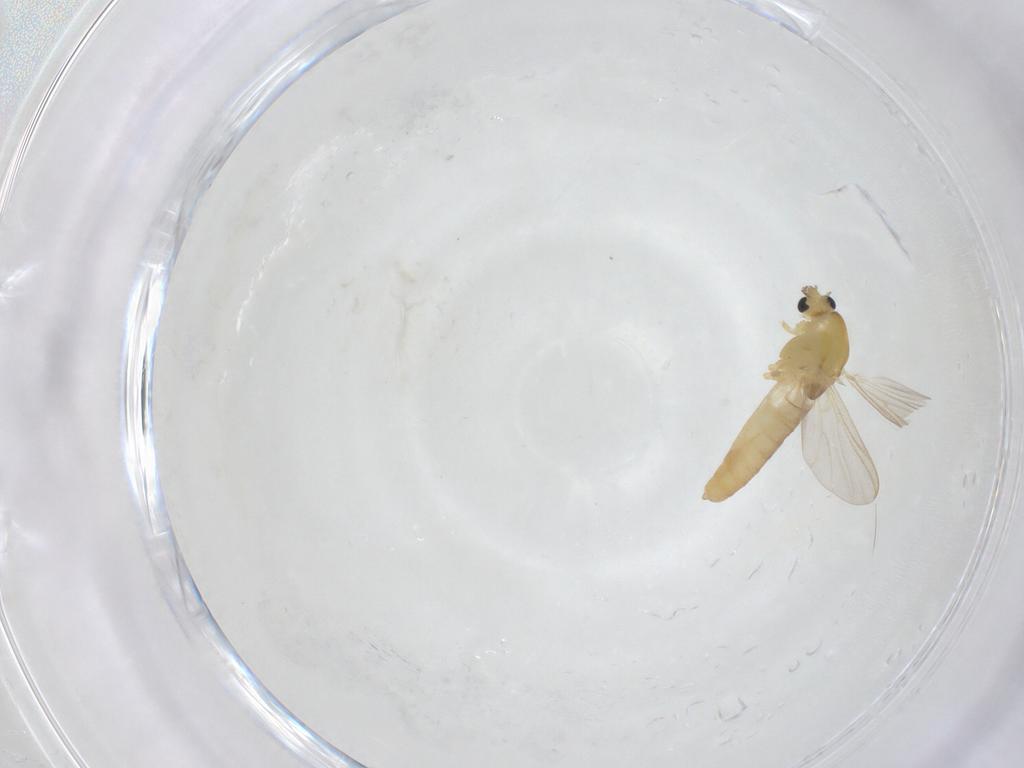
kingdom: Animalia
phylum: Arthropoda
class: Insecta
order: Diptera
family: Chironomidae
